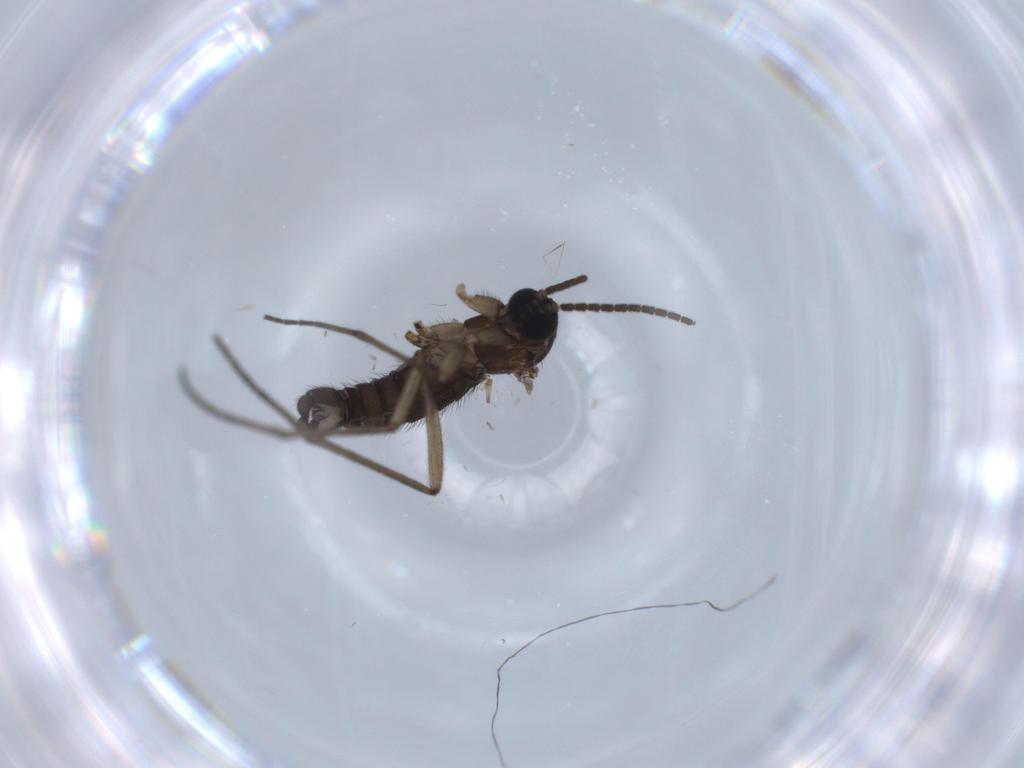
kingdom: Animalia
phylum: Arthropoda
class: Insecta
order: Diptera
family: Sciaridae
